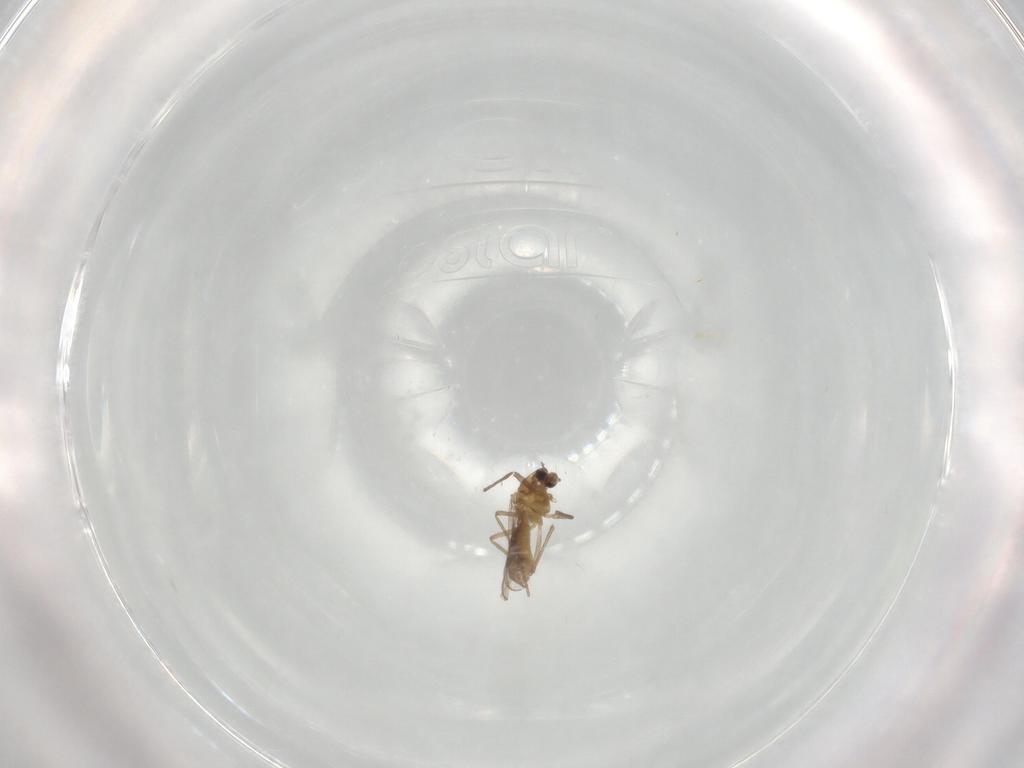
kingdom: Animalia
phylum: Arthropoda
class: Insecta
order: Diptera
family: Chironomidae
